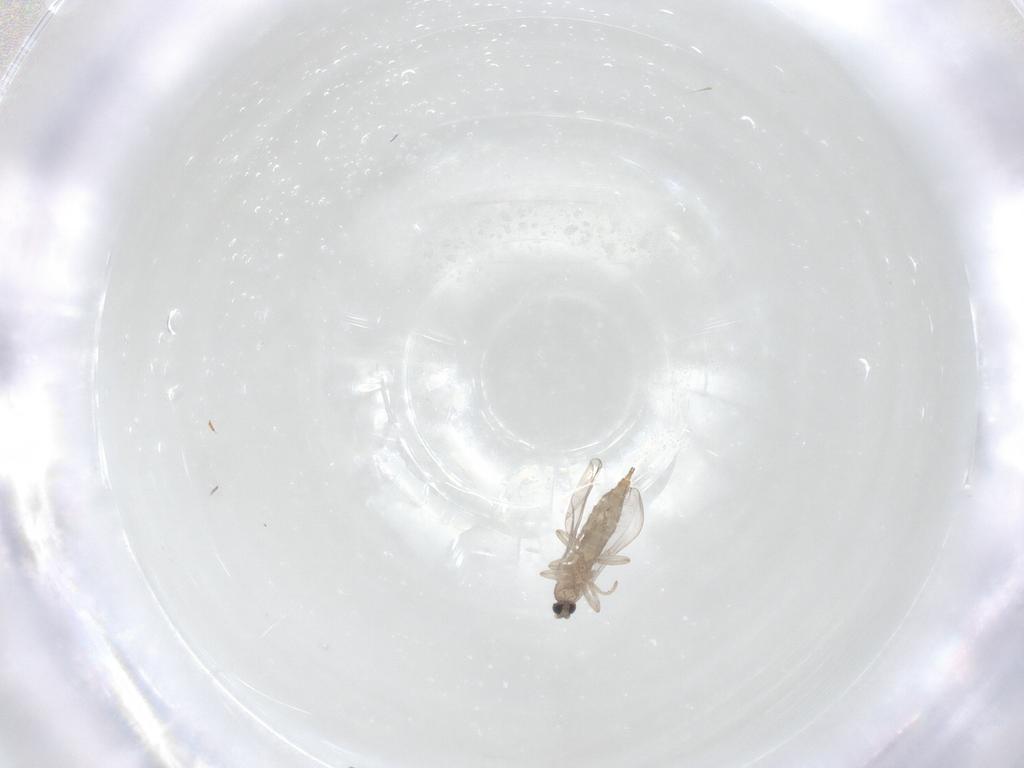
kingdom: Animalia
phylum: Arthropoda
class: Insecta
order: Diptera
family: Cecidomyiidae
